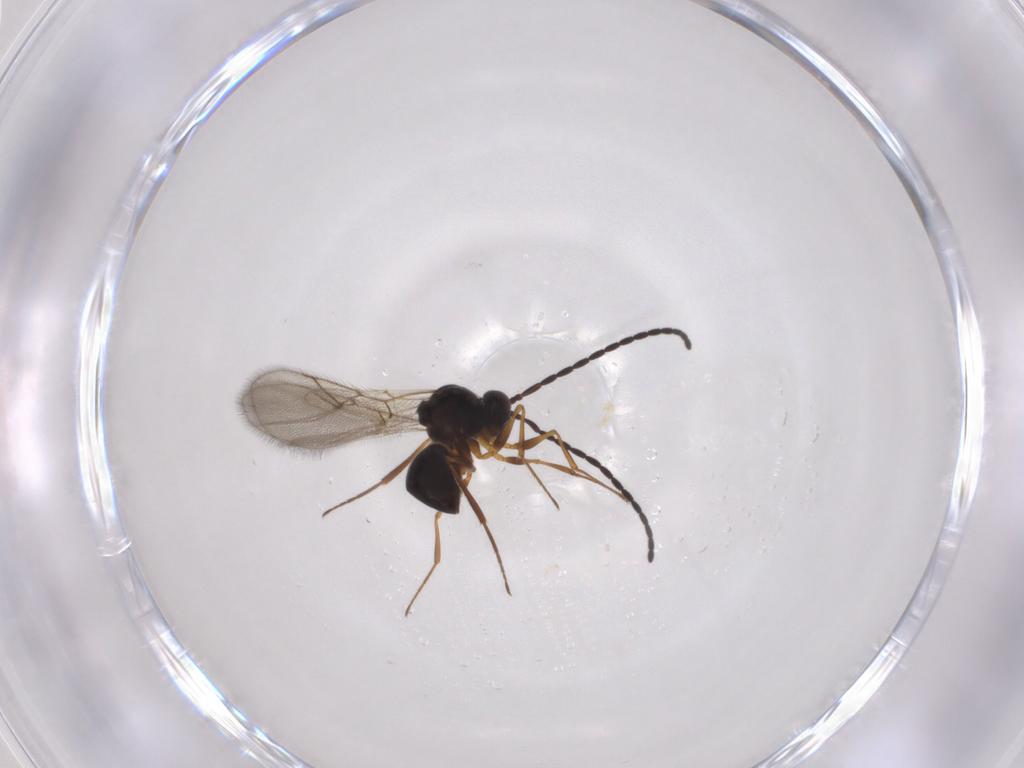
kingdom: Animalia
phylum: Arthropoda
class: Insecta
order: Hymenoptera
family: Figitidae
